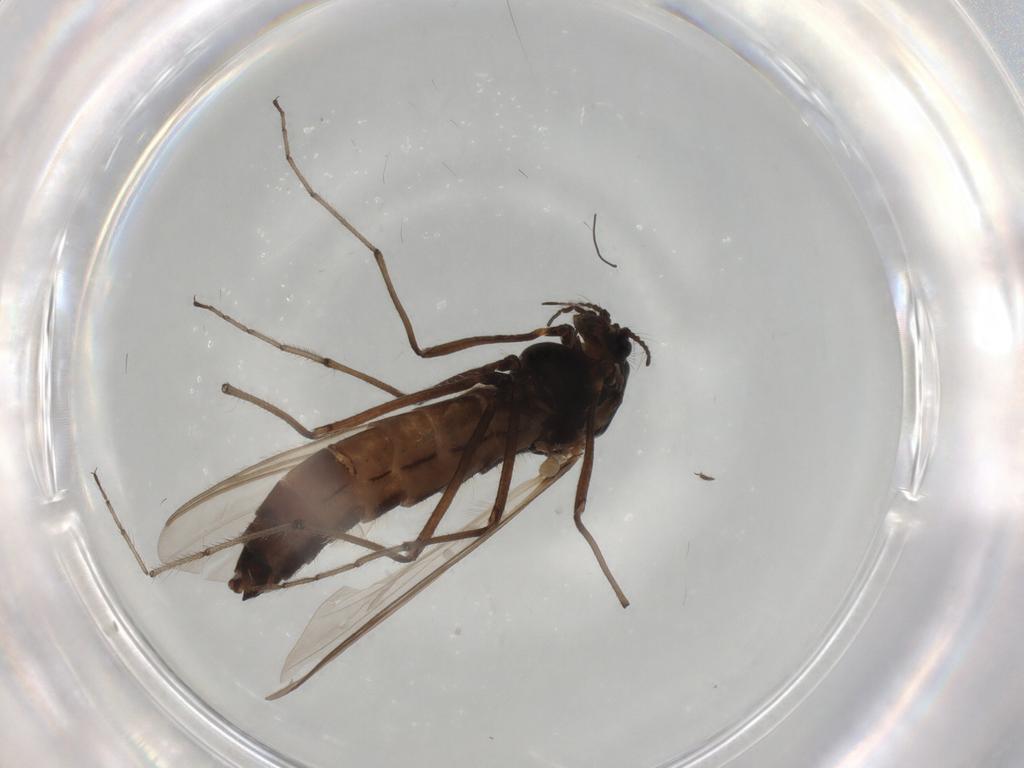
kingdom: Animalia
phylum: Arthropoda
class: Insecta
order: Diptera
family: Chironomidae
